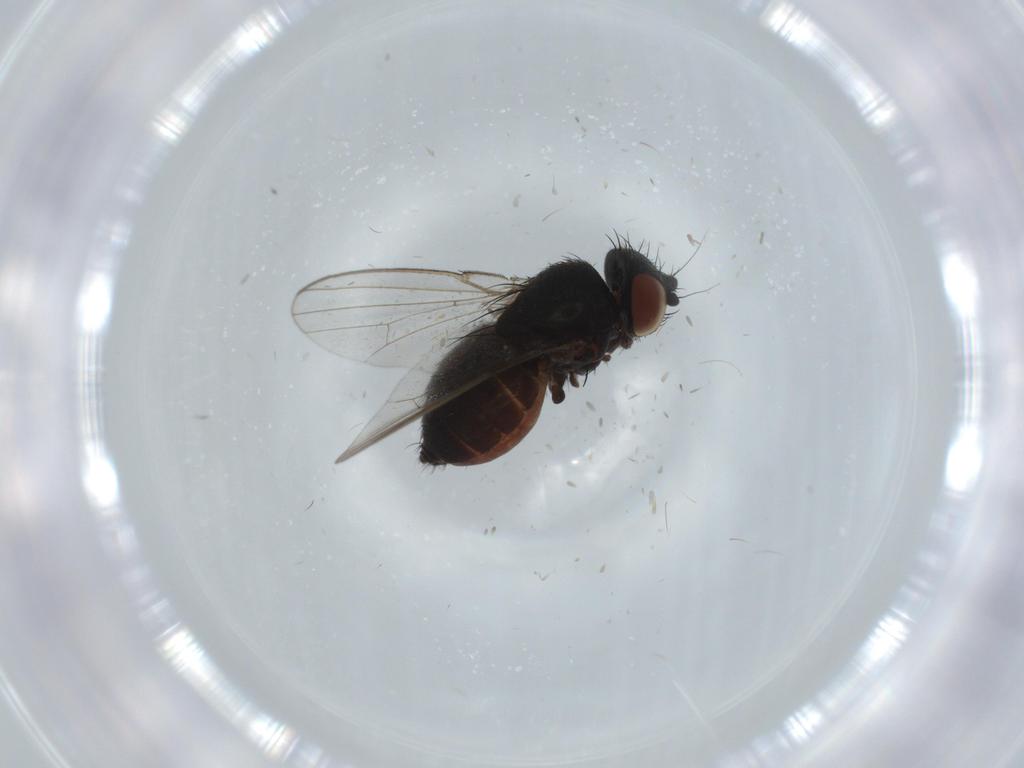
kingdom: Animalia
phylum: Arthropoda
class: Insecta
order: Diptera
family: Milichiidae
